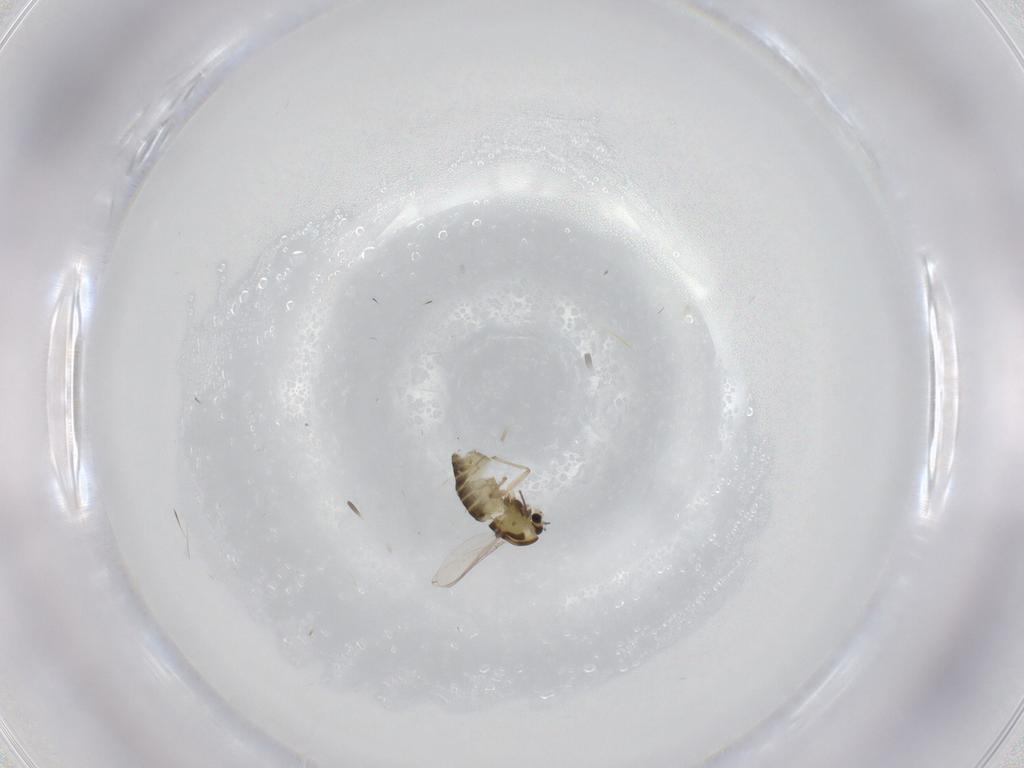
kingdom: Animalia
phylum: Arthropoda
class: Insecta
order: Diptera
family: Chironomidae
